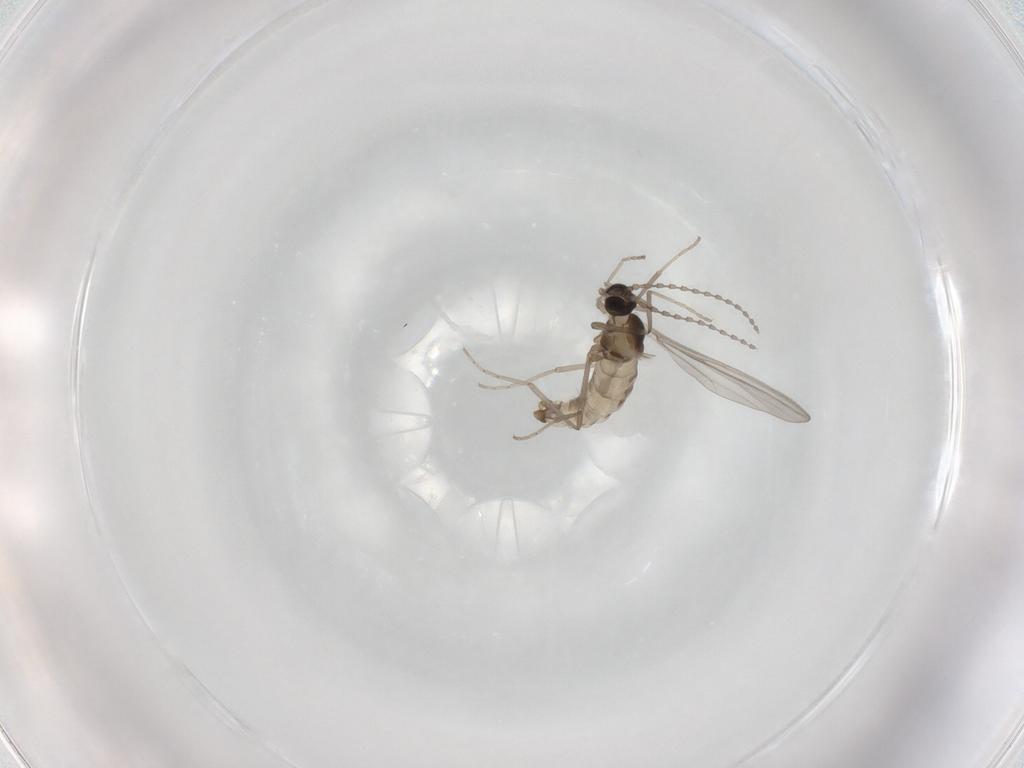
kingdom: Animalia
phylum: Arthropoda
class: Insecta
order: Diptera
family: Cecidomyiidae
